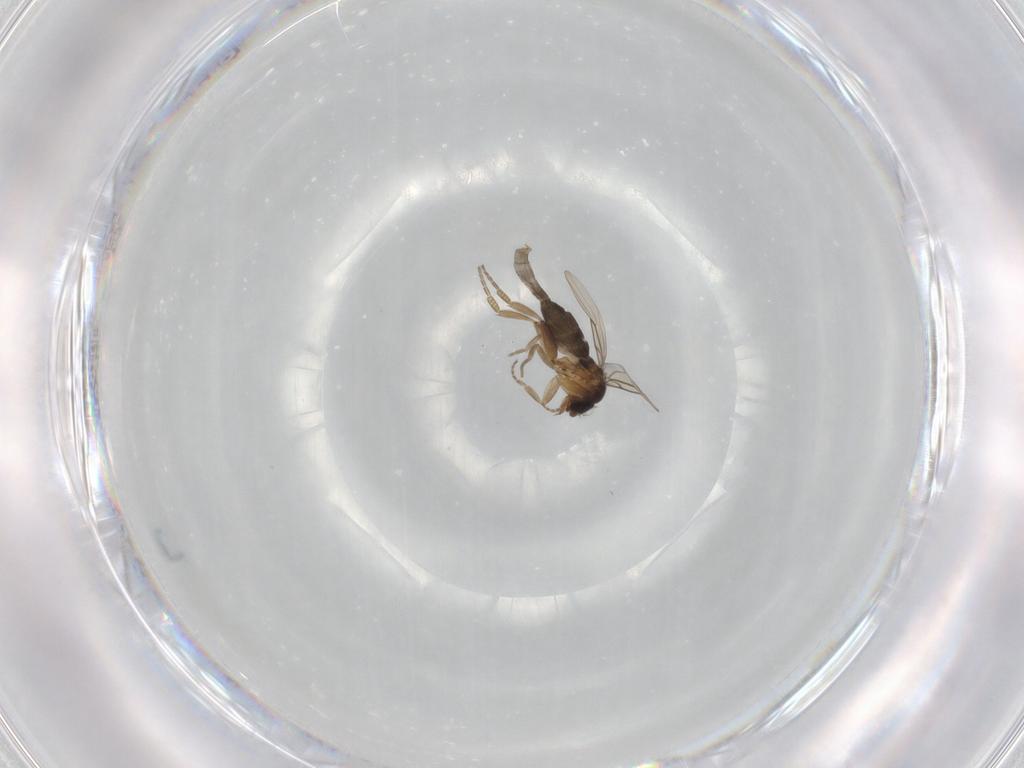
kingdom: Animalia
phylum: Arthropoda
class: Insecta
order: Diptera
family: Phoridae
